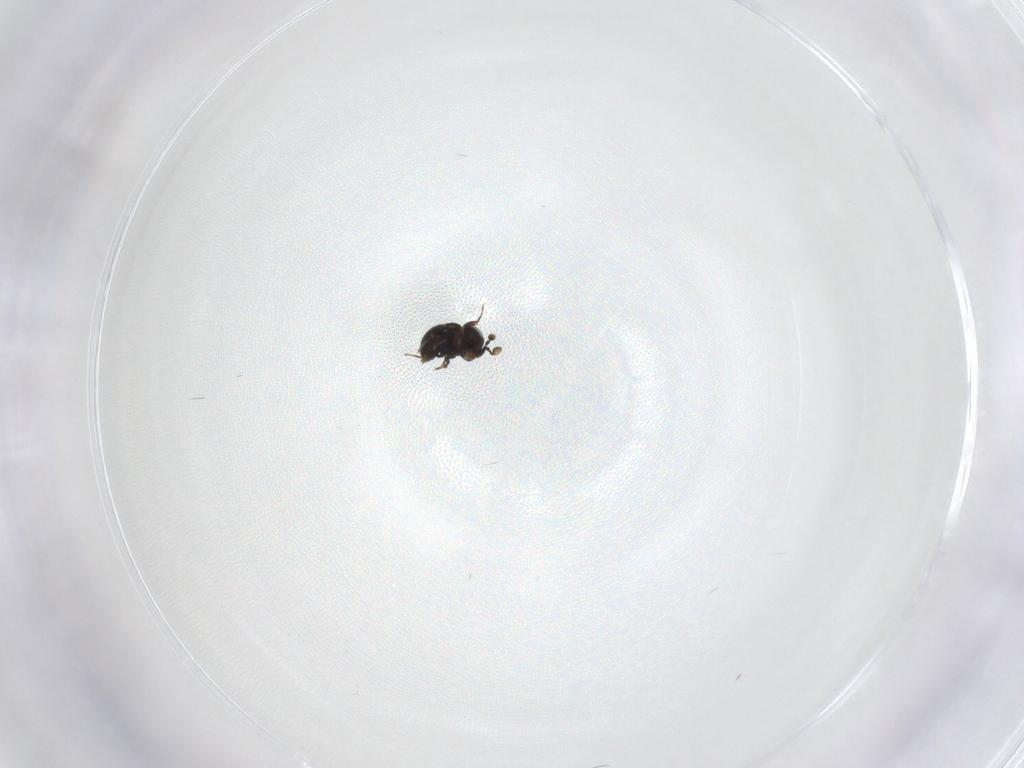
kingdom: Animalia
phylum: Arthropoda
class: Insecta
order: Hymenoptera
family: Scelionidae
